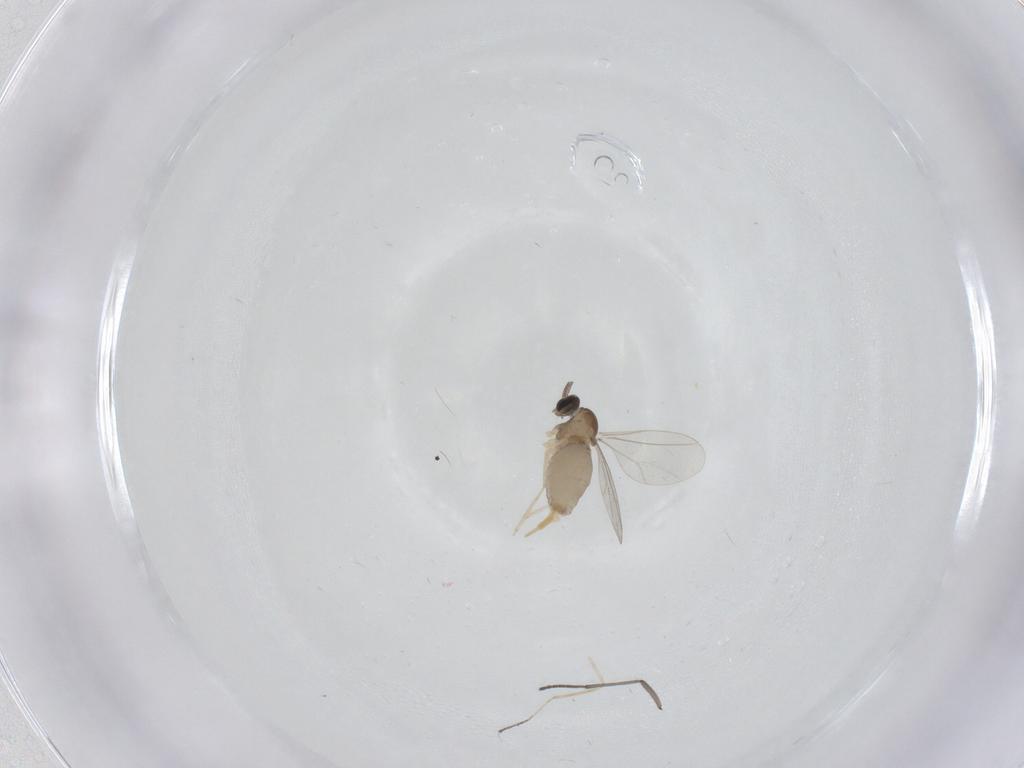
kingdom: Animalia
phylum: Arthropoda
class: Insecta
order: Diptera
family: Cecidomyiidae
